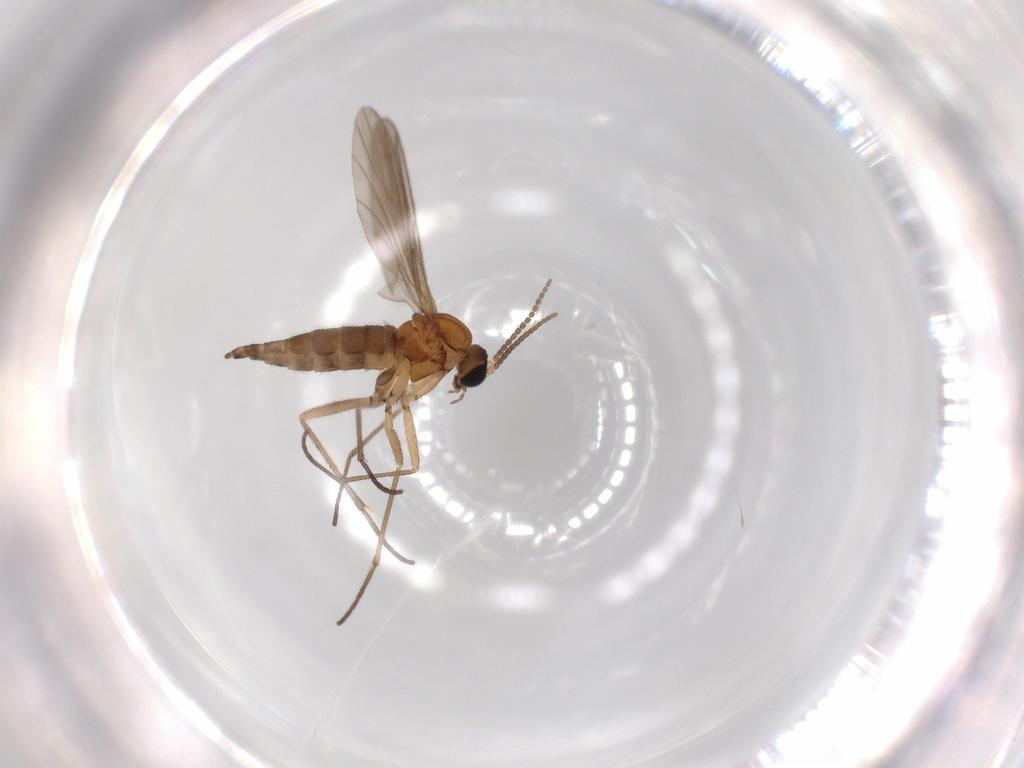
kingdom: Animalia
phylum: Arthropoda
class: Insecta
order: Diptera
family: Sciaridae
